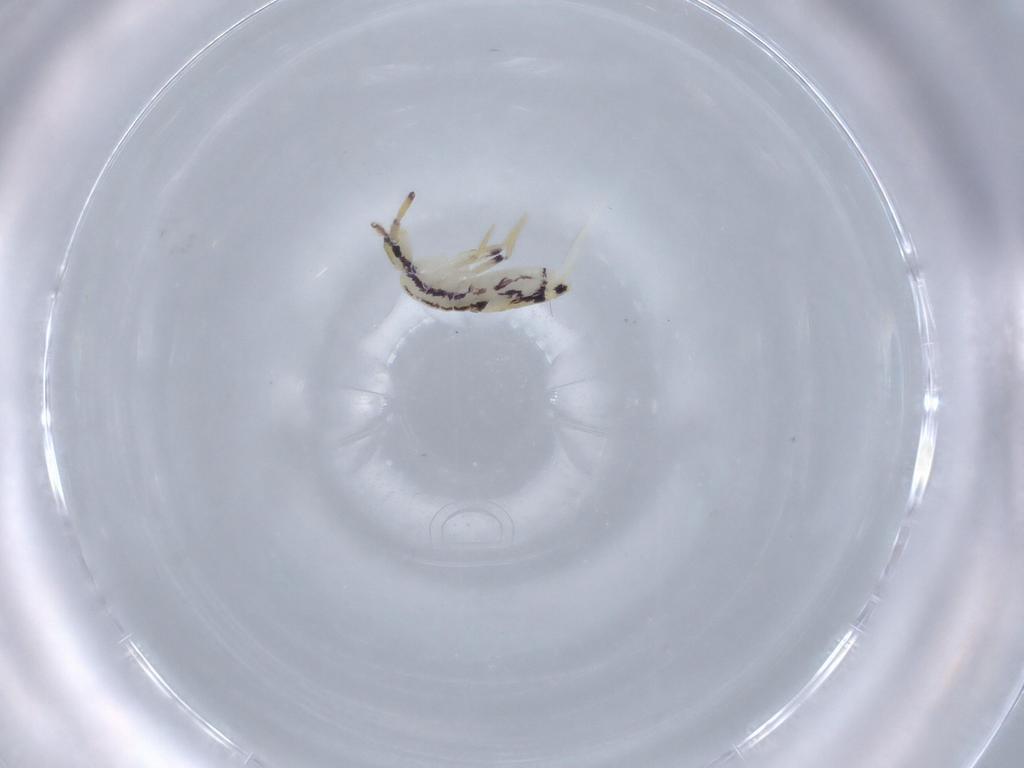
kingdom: Animalia
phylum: Arthropoda
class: Collembola
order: Entomobryomorpha
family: Entomobryidae
